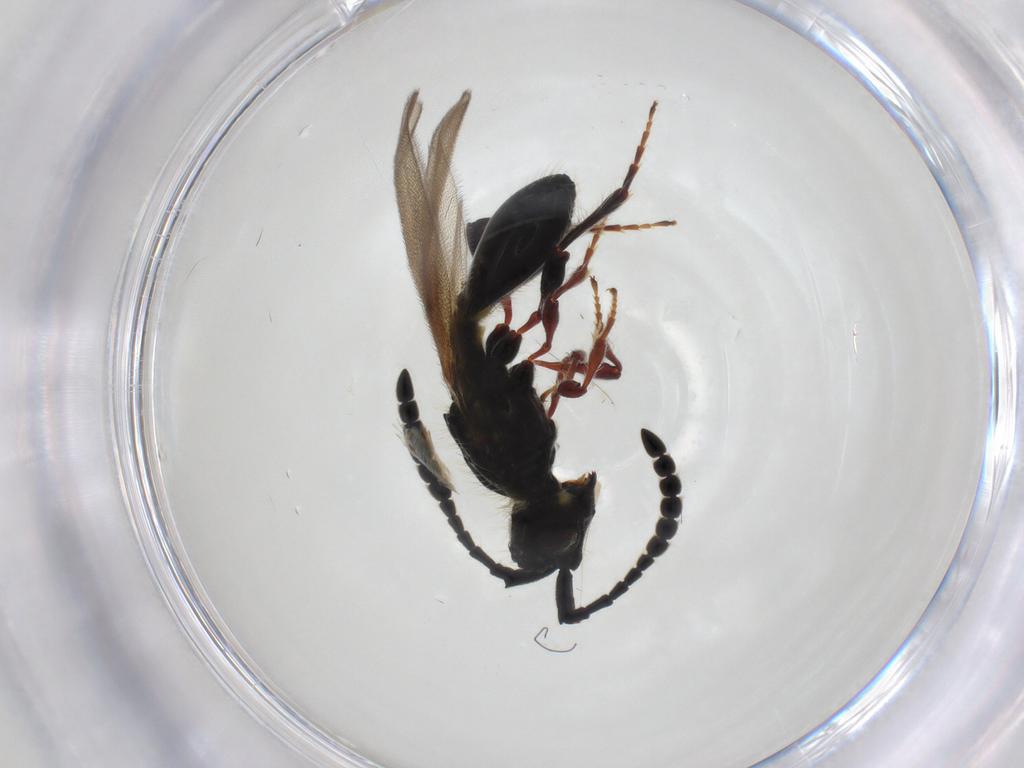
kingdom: Animalia
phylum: Arthropoda
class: Insecta
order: Hymenoptera
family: Diapriidae
